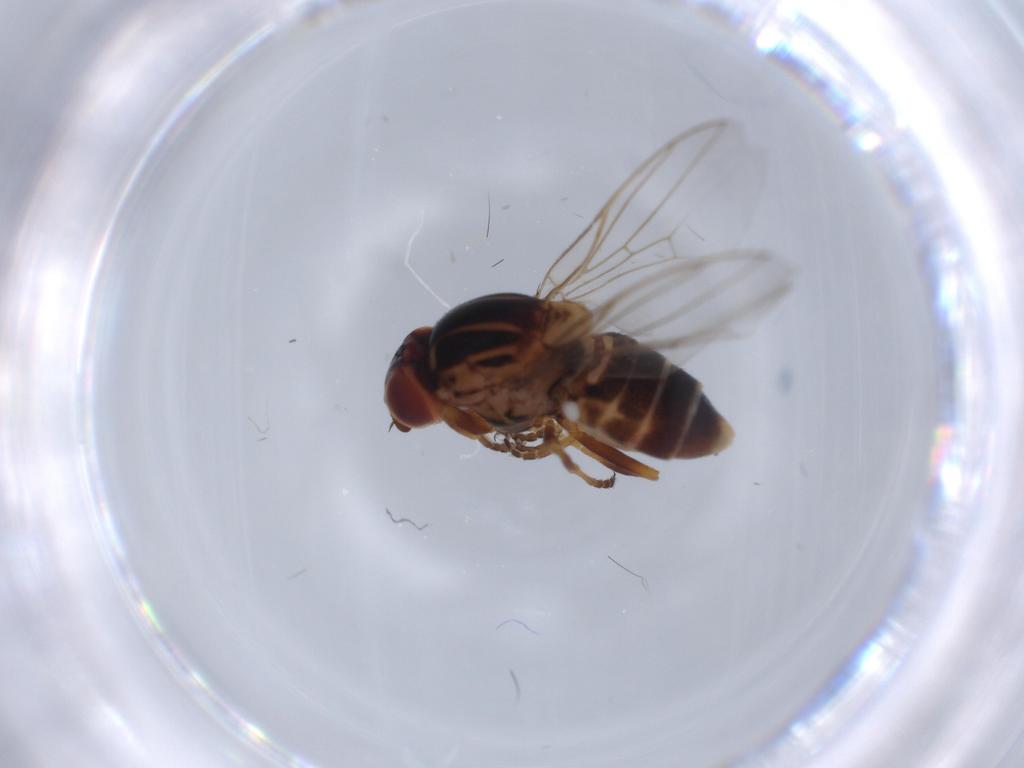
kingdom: Animalia
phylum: Arthropoda
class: Insecta
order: Diptera
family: Chloropidae
